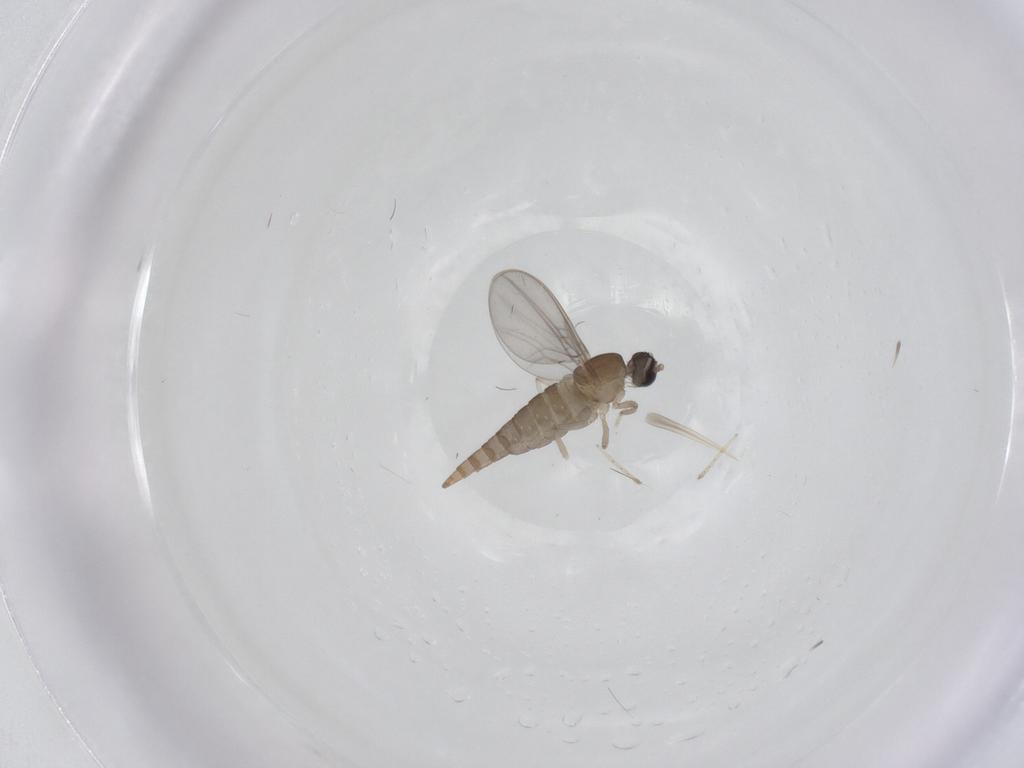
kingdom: Animalia
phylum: Arthropoda
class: Insecta
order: Diptera
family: Cecidomyiidae
